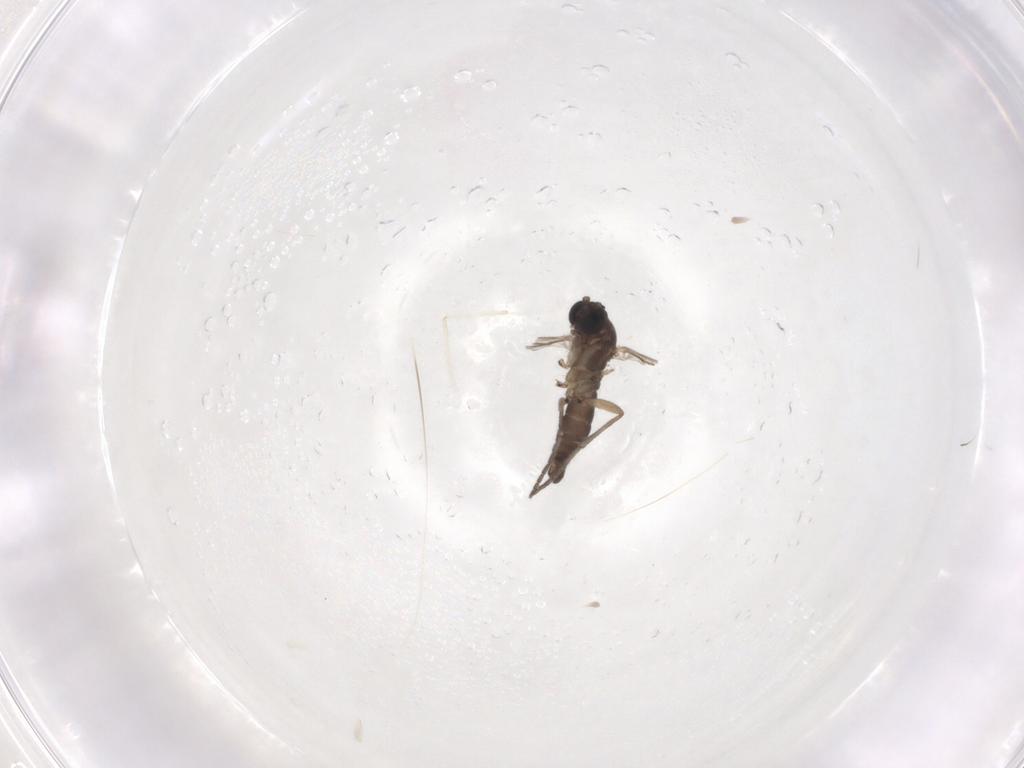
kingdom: Animalia
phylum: Arthropoda
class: Insecta
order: Diptera
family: Sciaridae
